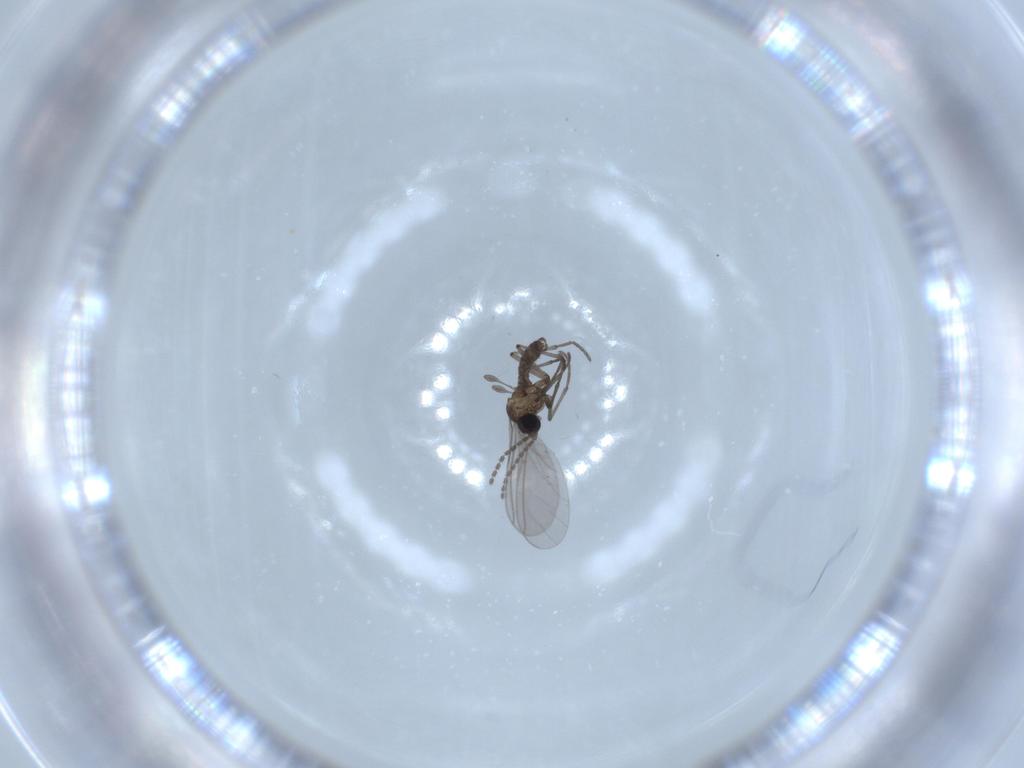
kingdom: Animalia
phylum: Arthropoda
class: Insecta
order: Diptera
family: Sciaridae
